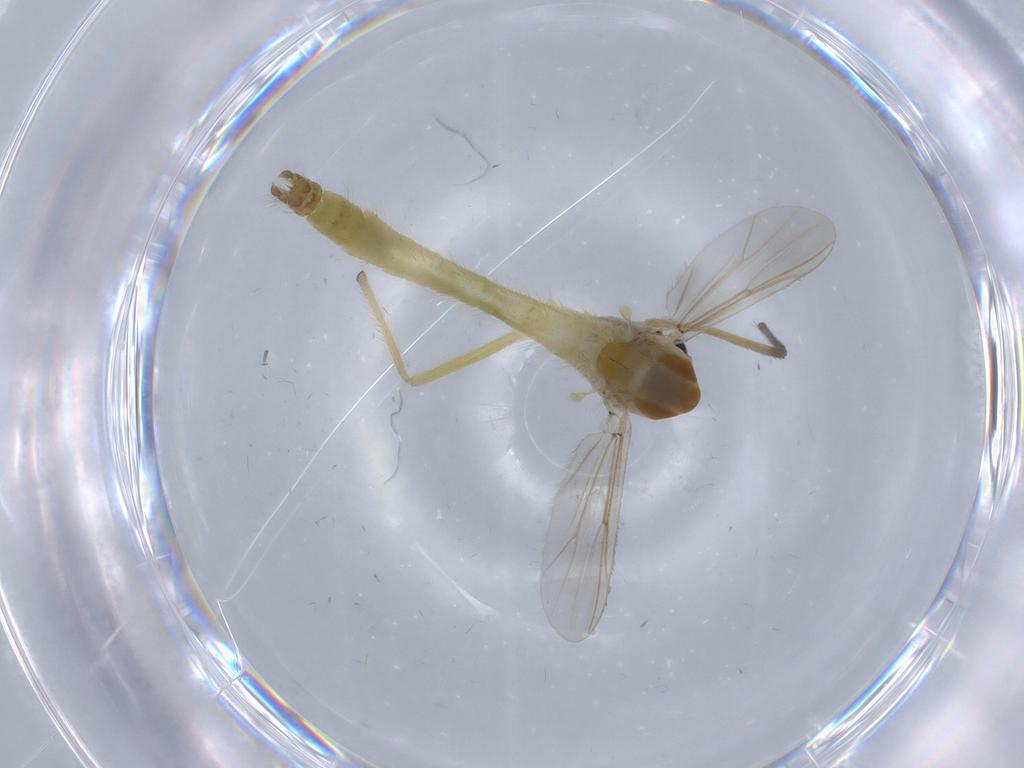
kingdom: Animalia
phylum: Arthropoda
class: Insecta
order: Diptera
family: Chironomidae
